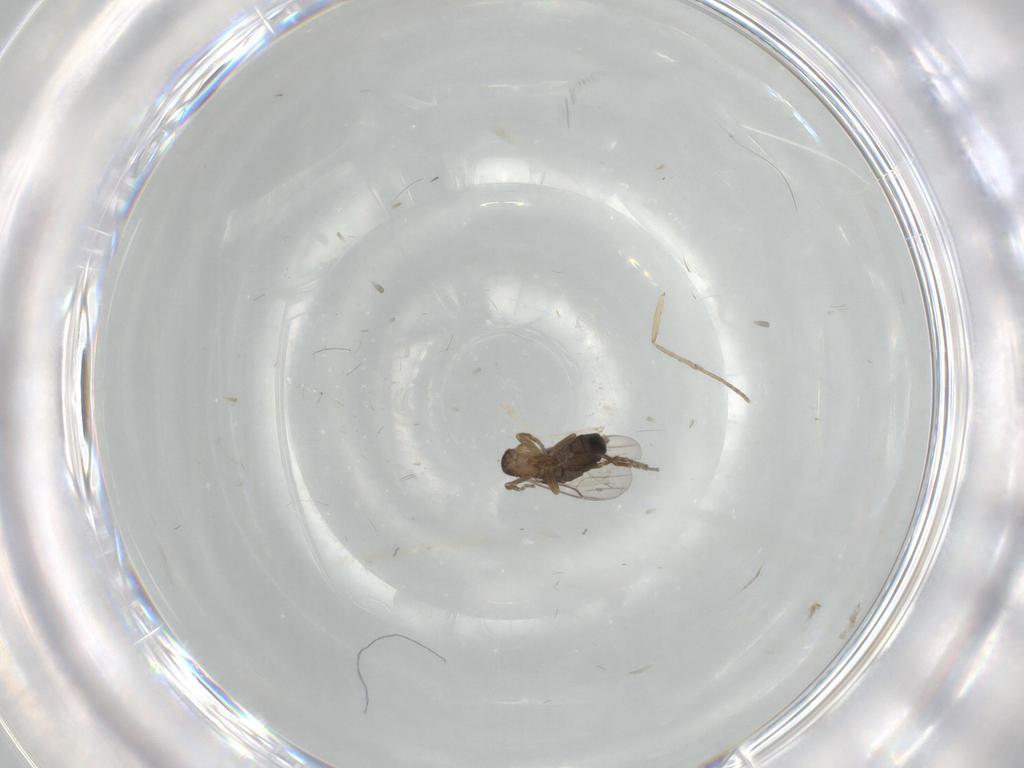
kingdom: Animalia
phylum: Arthropoda
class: Insecta
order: Diptera
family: Phoridae
